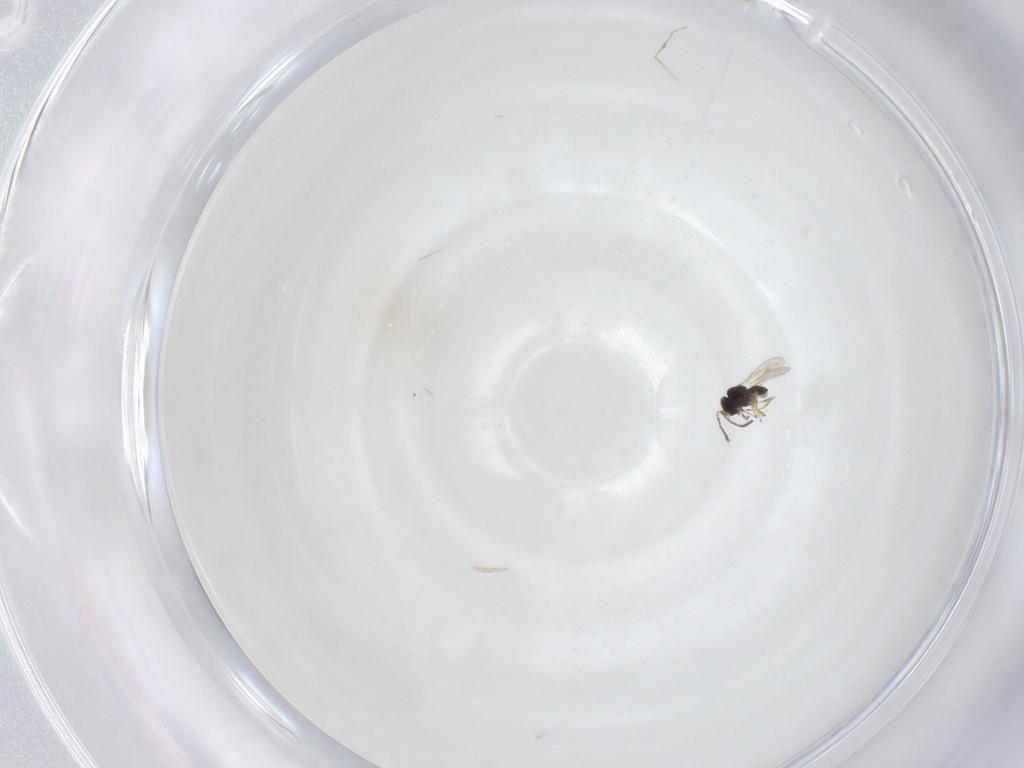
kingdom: Animalia
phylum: Arthropoda
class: Insecta
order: Hymenoptera
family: Scelionidae
